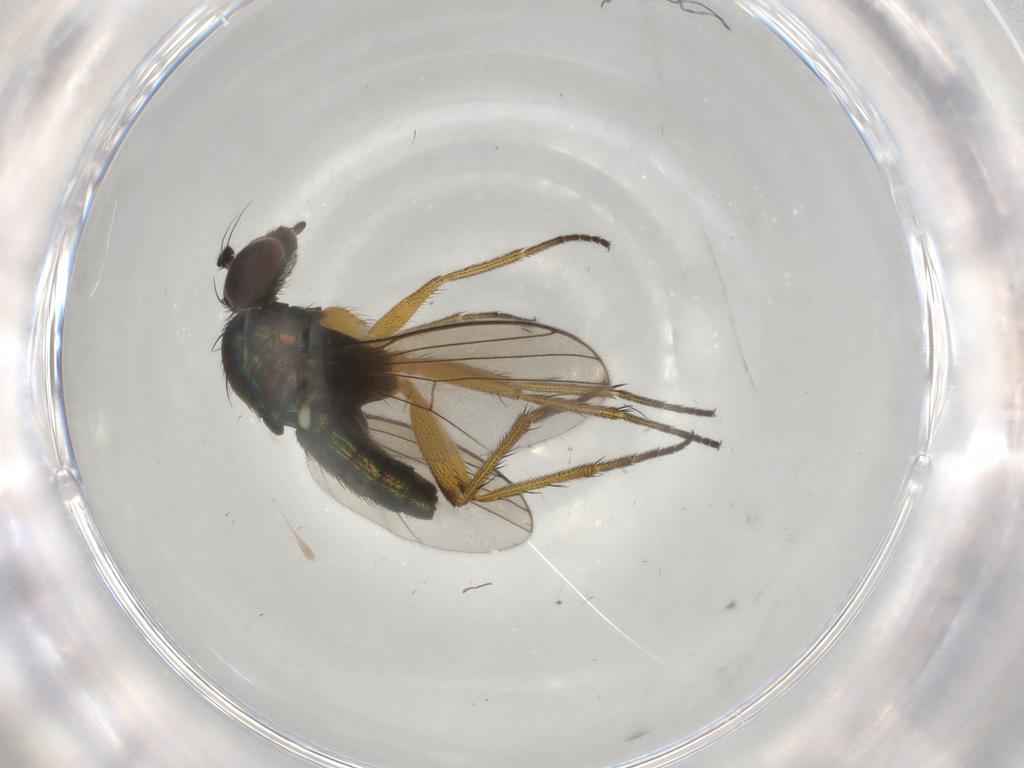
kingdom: Animalia
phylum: Arthropoda
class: Insecta
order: Diptera
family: Dolichopodidae
